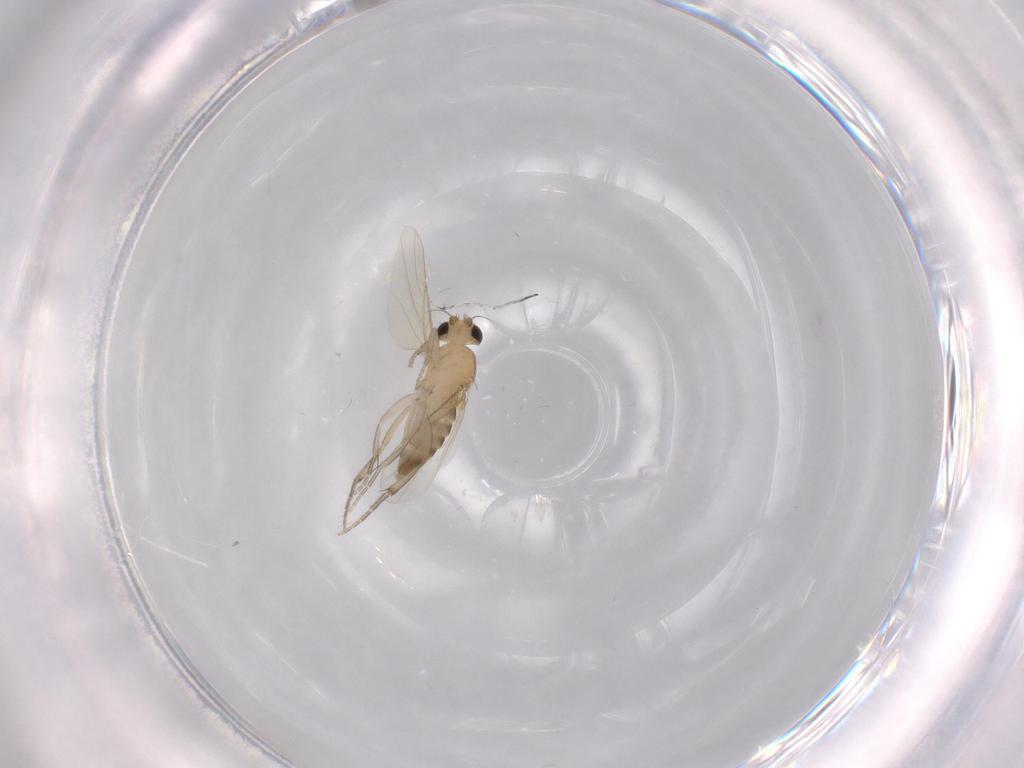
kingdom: Animalia
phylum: Arthropoda
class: Insecta
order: Diptera
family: Phoridae
